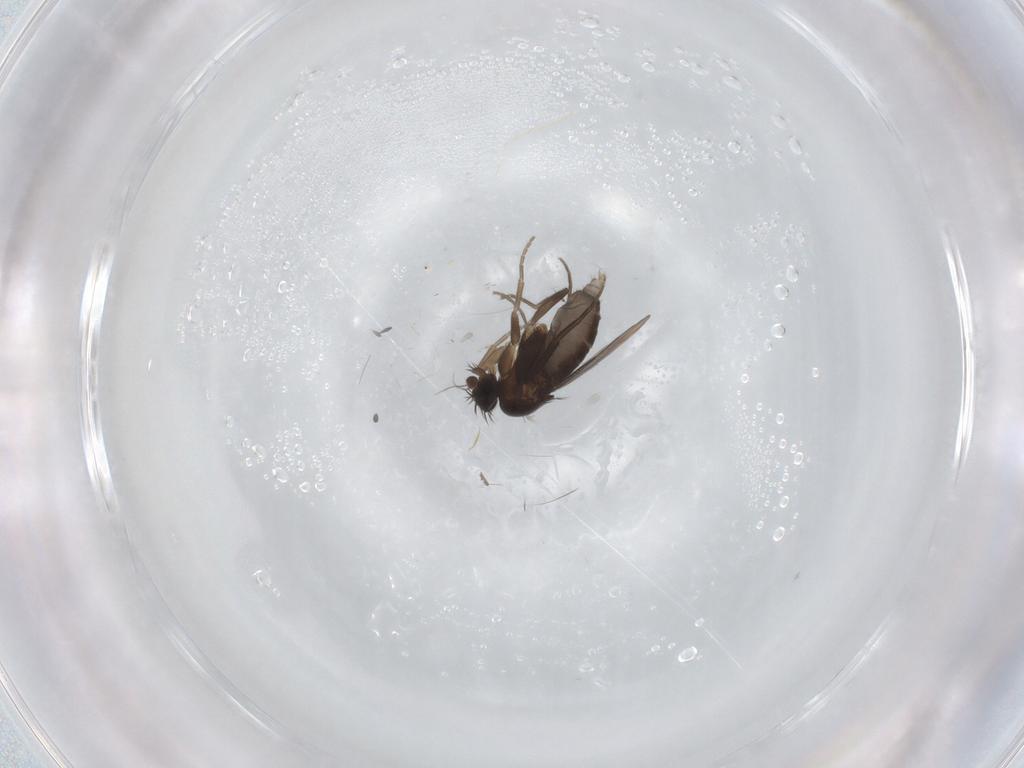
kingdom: Animalia
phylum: Arthropoda
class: Insecta
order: Diptera
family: Phoridae
